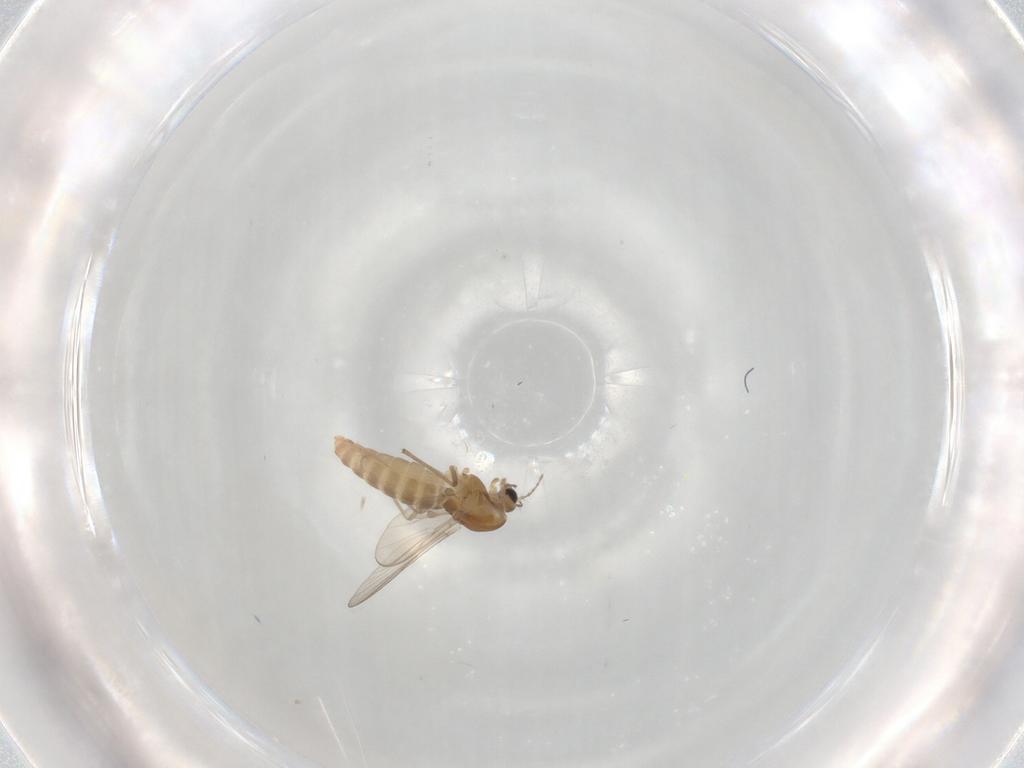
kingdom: Animalia
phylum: Arthropoda
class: Insecta
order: Diptera
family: Chironomidae
